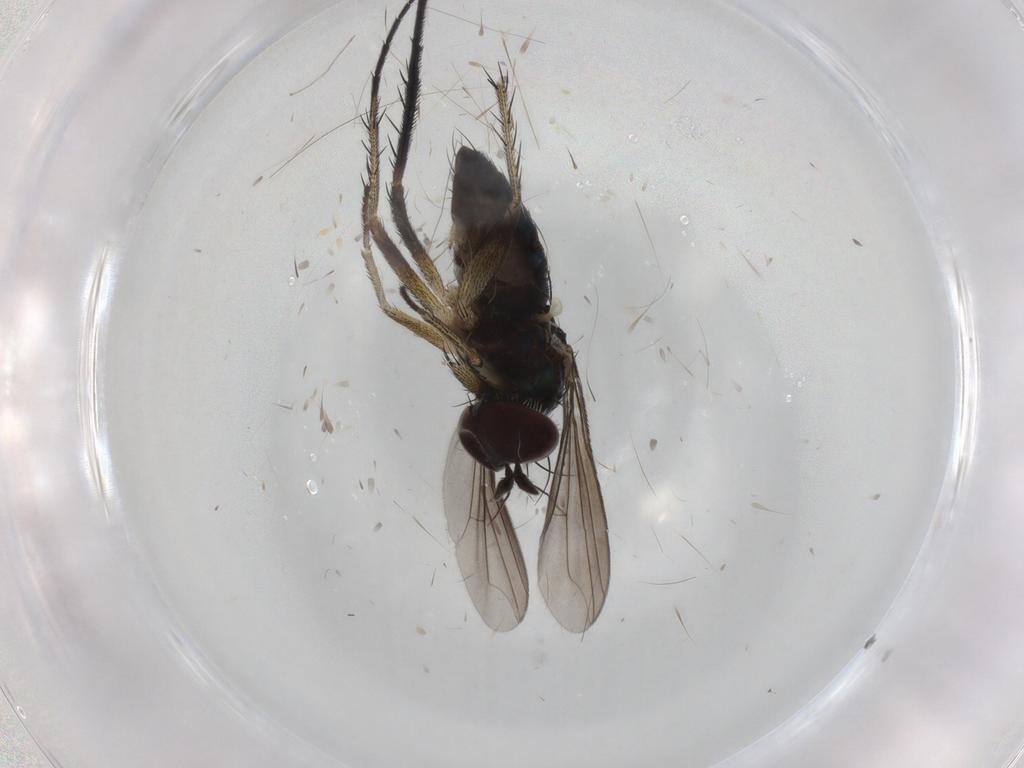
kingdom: Animalia
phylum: Arthropoda
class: Insecta
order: Diptera
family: Dolichopodidae
